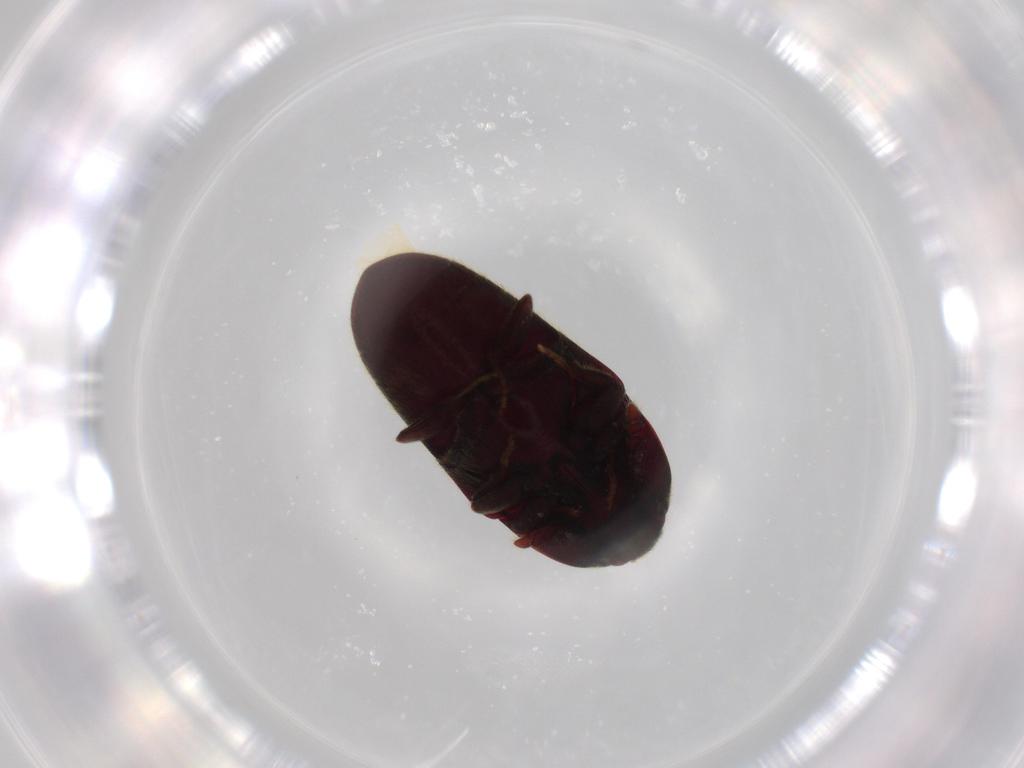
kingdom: Animalia
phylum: Arthropoda
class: Insecta
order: Coleoptera
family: Throscidae
